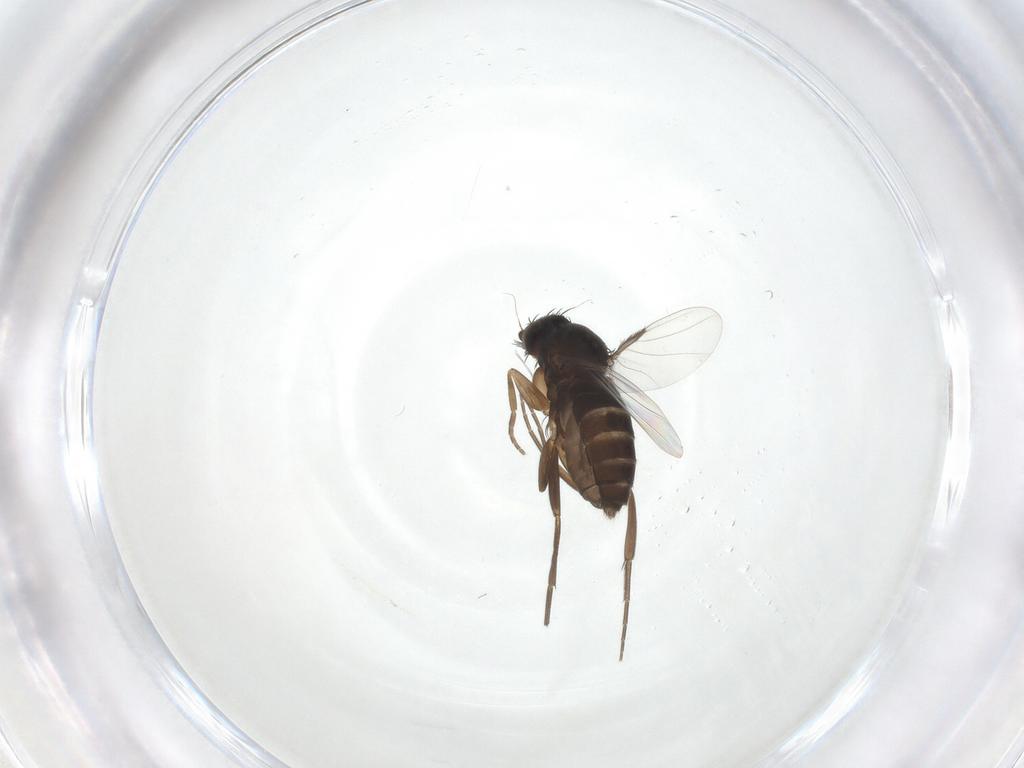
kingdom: Animalia
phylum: Arthropoda
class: Insecta
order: Diptera
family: Phoridae
